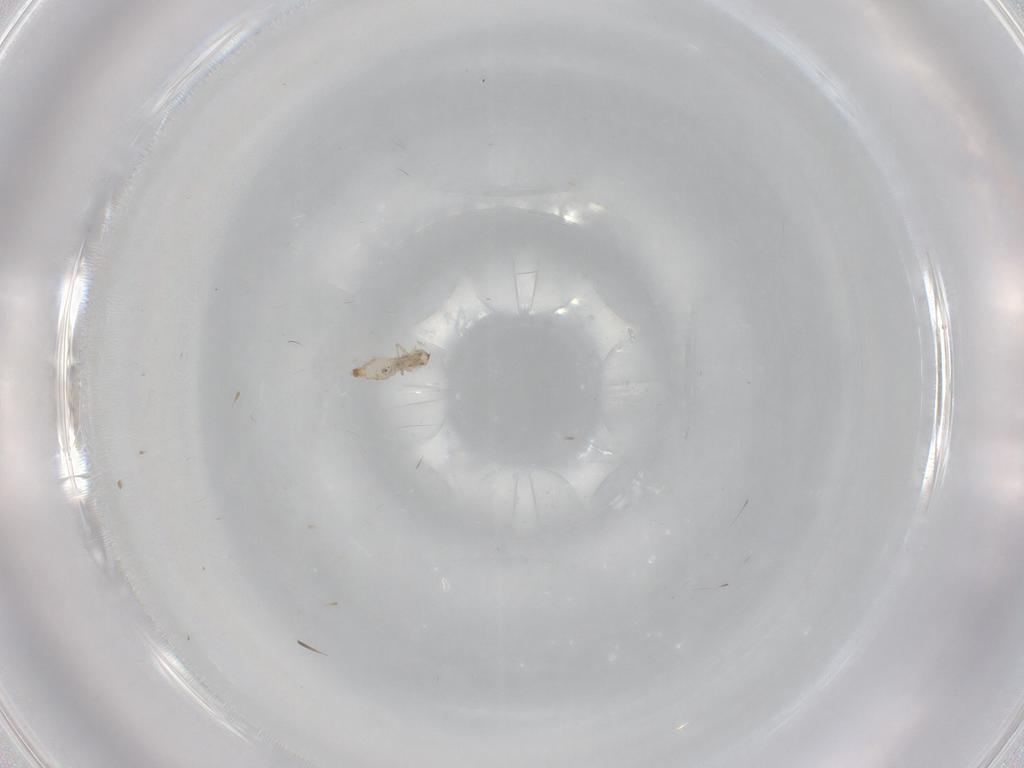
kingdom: Animalia
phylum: Arthropoda
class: Insecta
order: Diptera
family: Cecidomyiidae
